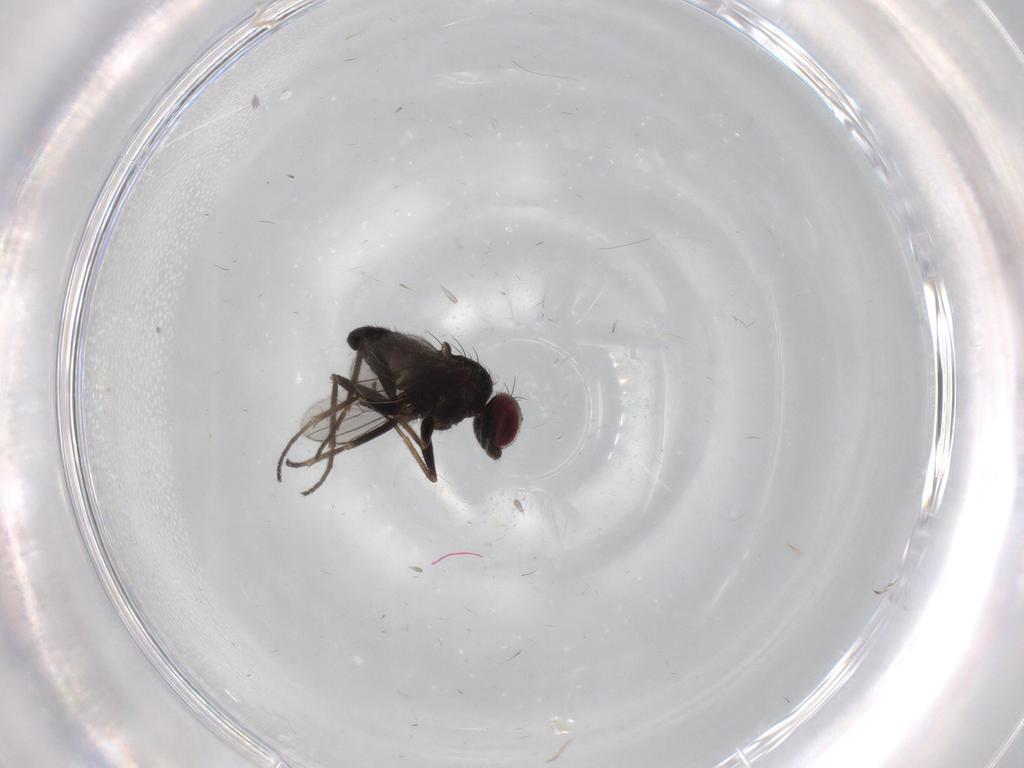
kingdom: Animalia
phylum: Arthropoda
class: Insecta
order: Diptera
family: Dolichopodidae
